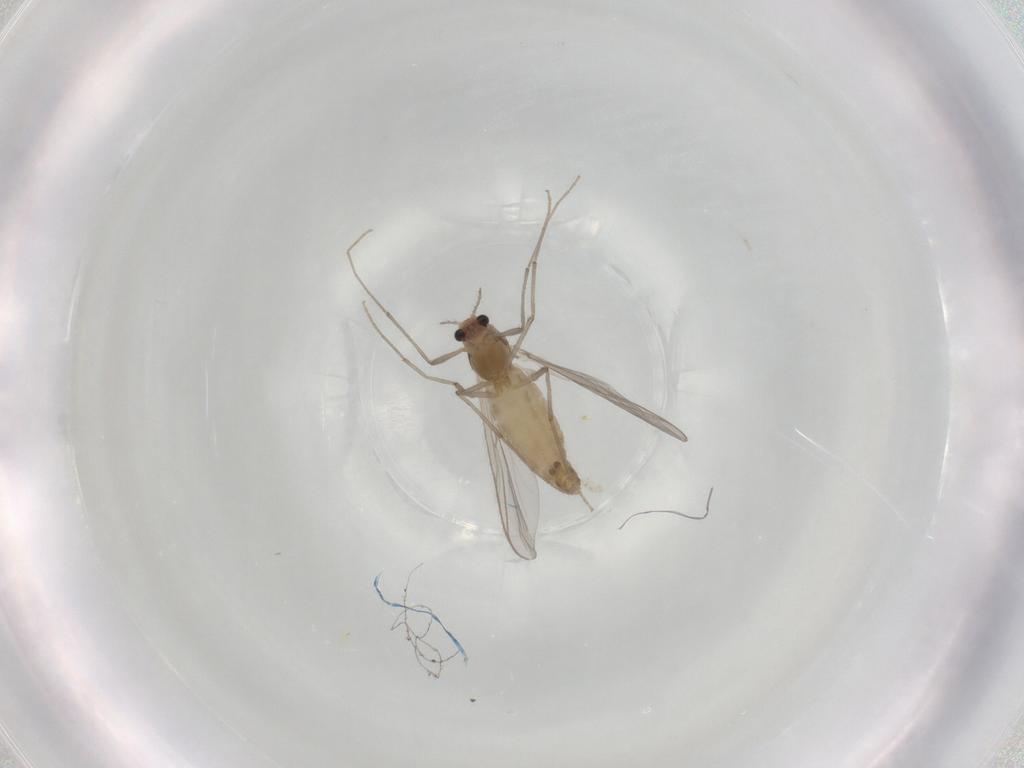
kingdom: Animalia
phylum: Arthropoda
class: Insecta
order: Diptera
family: Chironomidae
